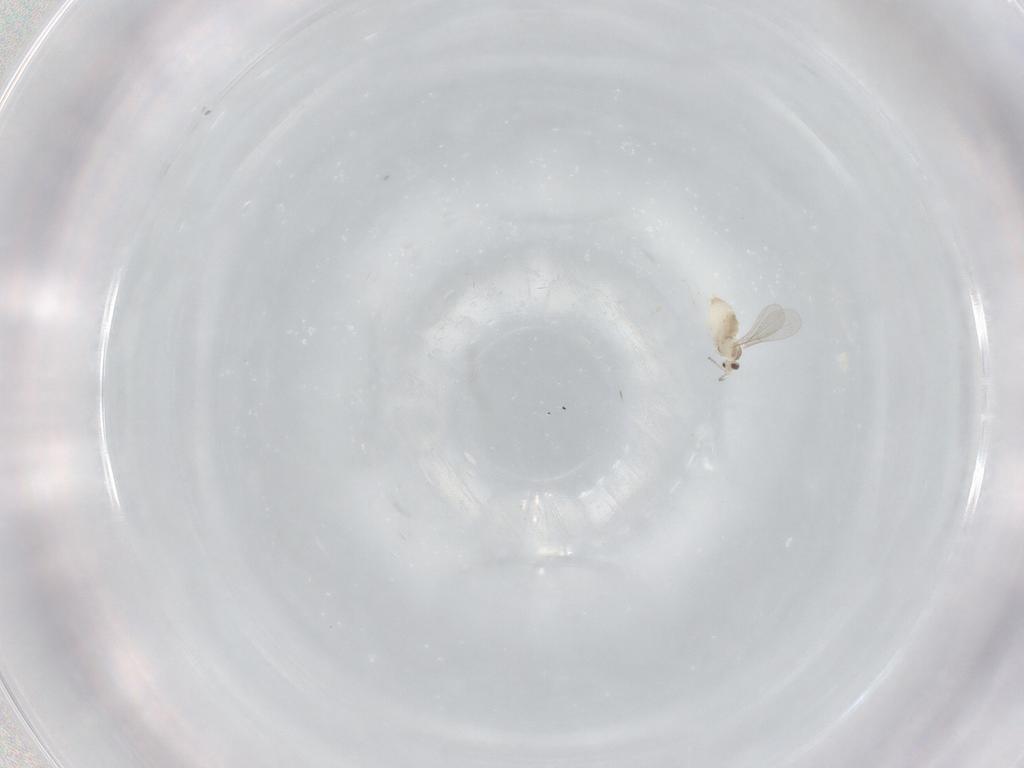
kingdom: Animalia
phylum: Arthropoda
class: Insecta
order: Diptera
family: Cecidomyiidae
